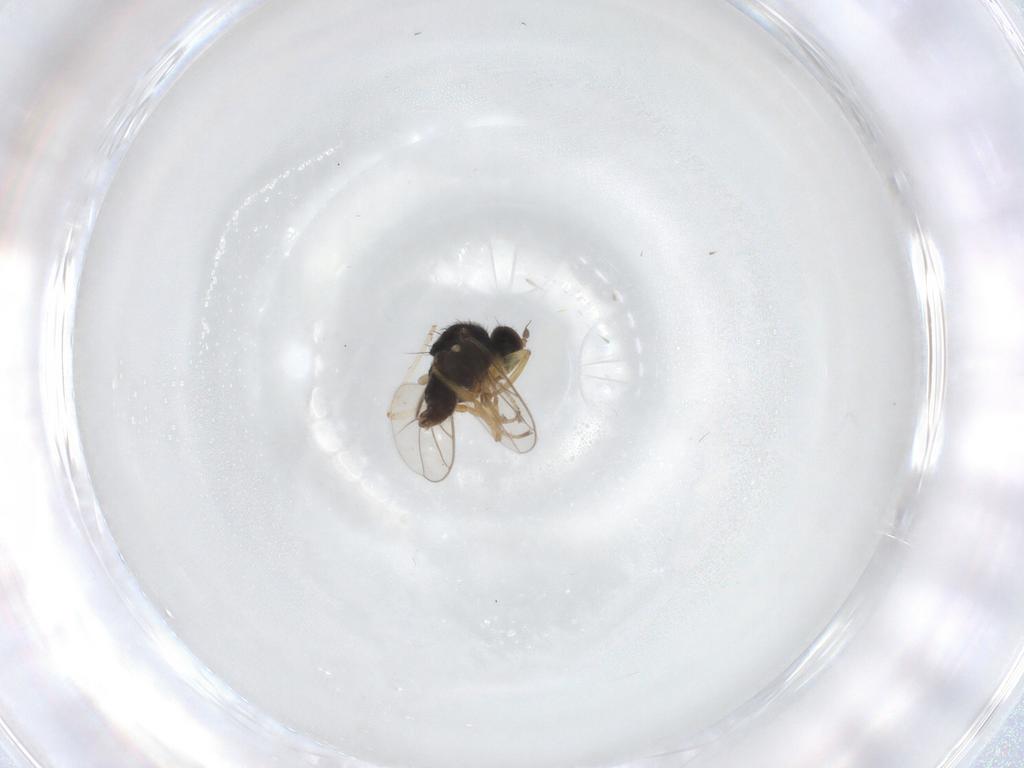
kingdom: Animalia
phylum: Arthropoda
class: Insecta
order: Diptera
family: Hybotidae
